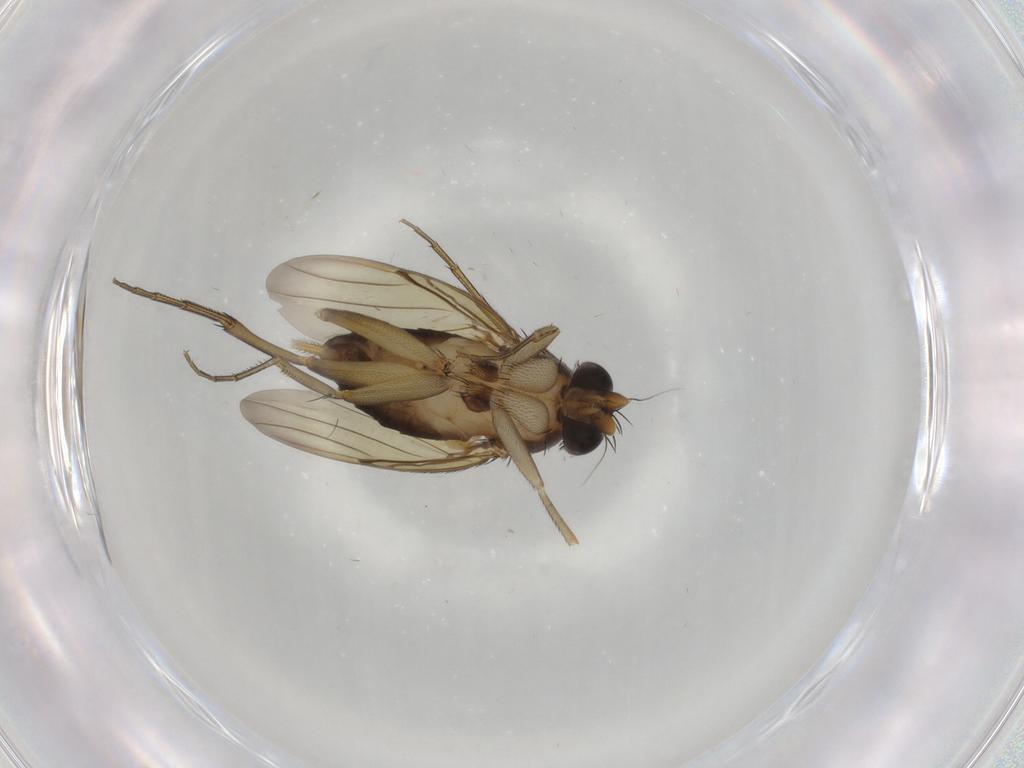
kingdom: Animalia
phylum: Arthropoda
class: Insecta
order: Diptera
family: Phoridae
